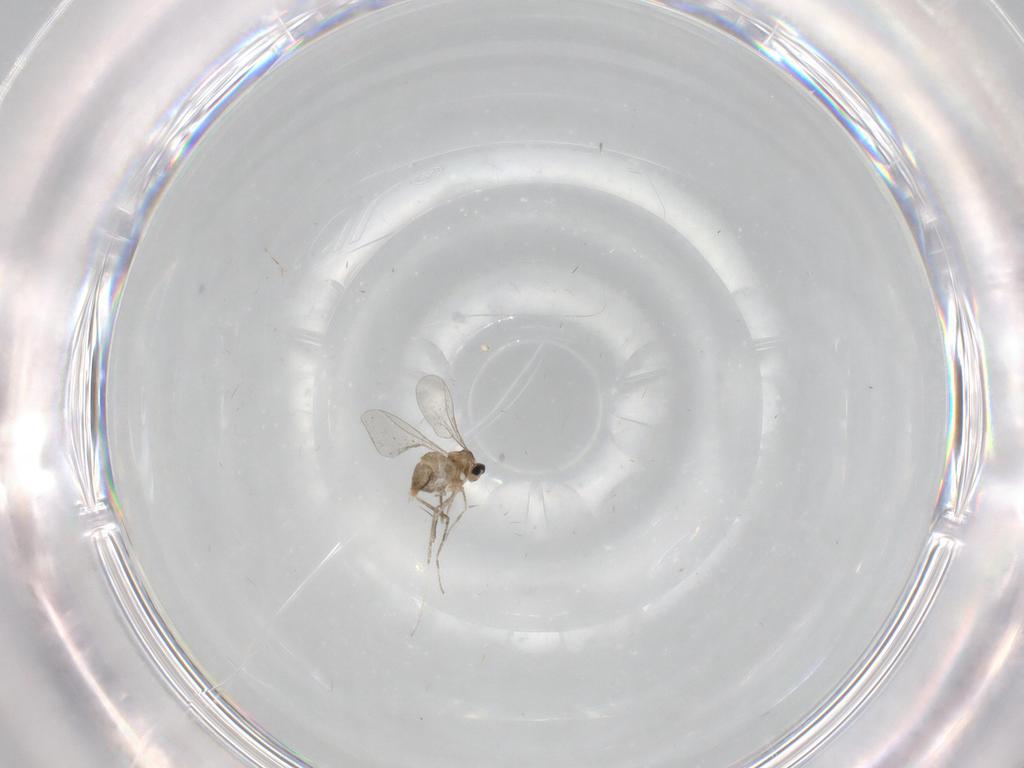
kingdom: Animalia
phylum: Arthropoda
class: Insecta
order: Diptera
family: Cecidomyiidae
